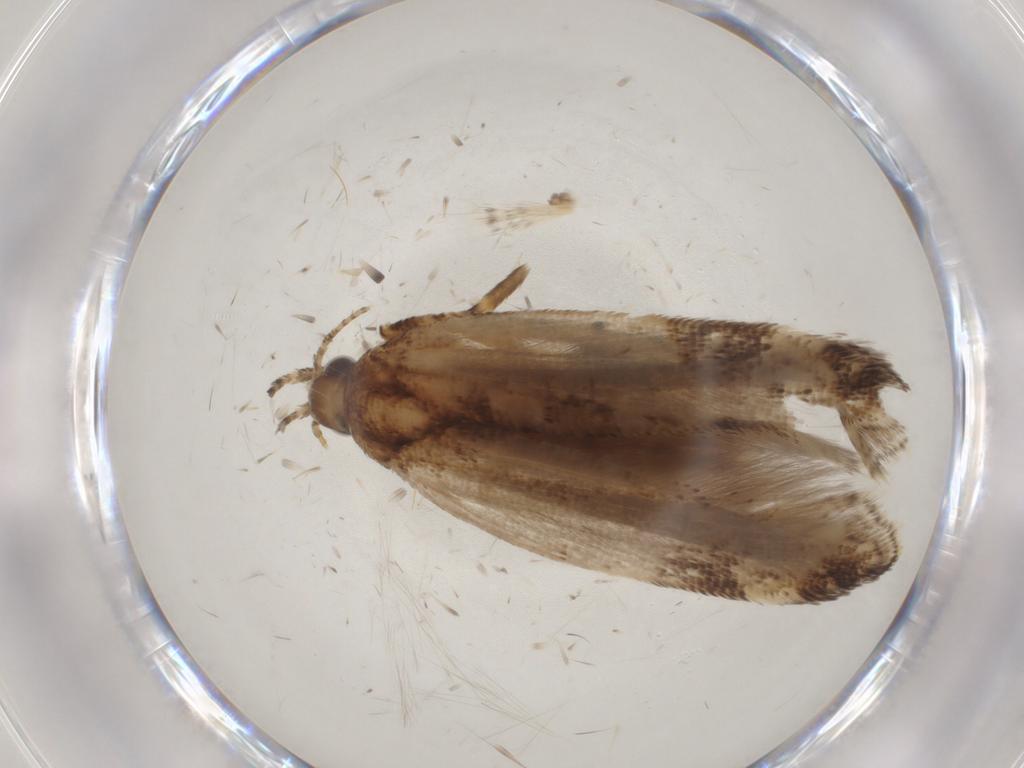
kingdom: Animalia
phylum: Arthropoda
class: Insecta
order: Lepidoptera
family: Gelechiidae
